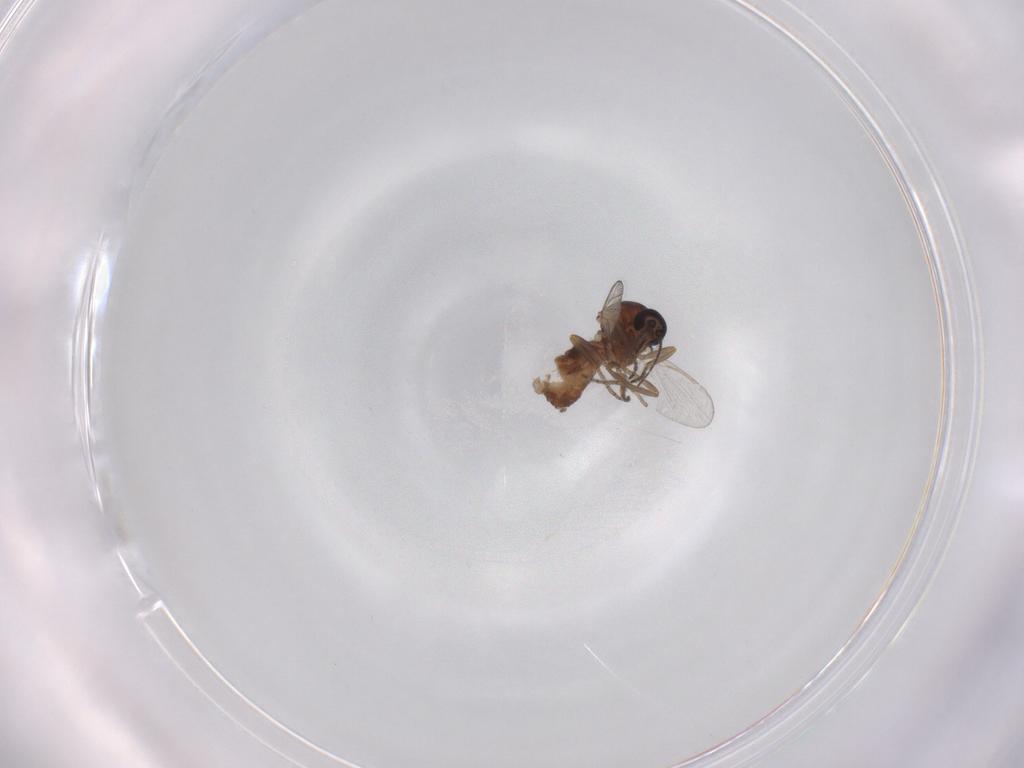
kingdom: Animalia
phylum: Arthropoda
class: Insecta
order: Diptera
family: Ceratopogonidae
